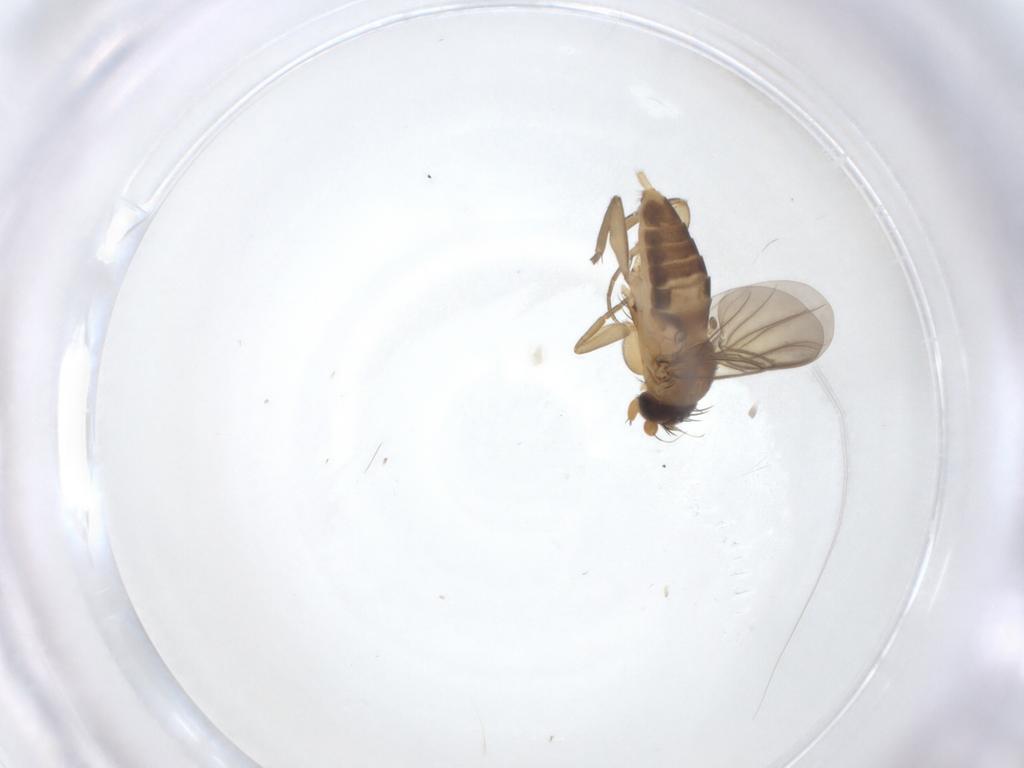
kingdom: Animalia
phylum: Arthropoda
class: Insecta
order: Diptera
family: Phoridae
